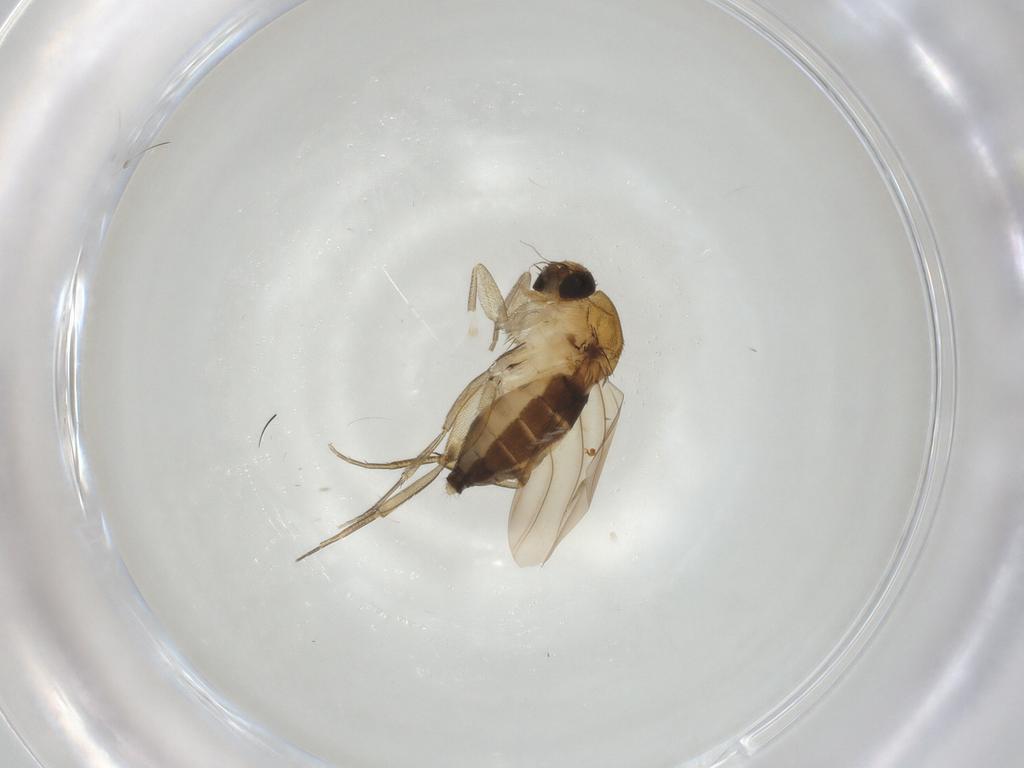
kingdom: Animalia
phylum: Arthropoda
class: Insecta
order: Diptera
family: Phoridae
